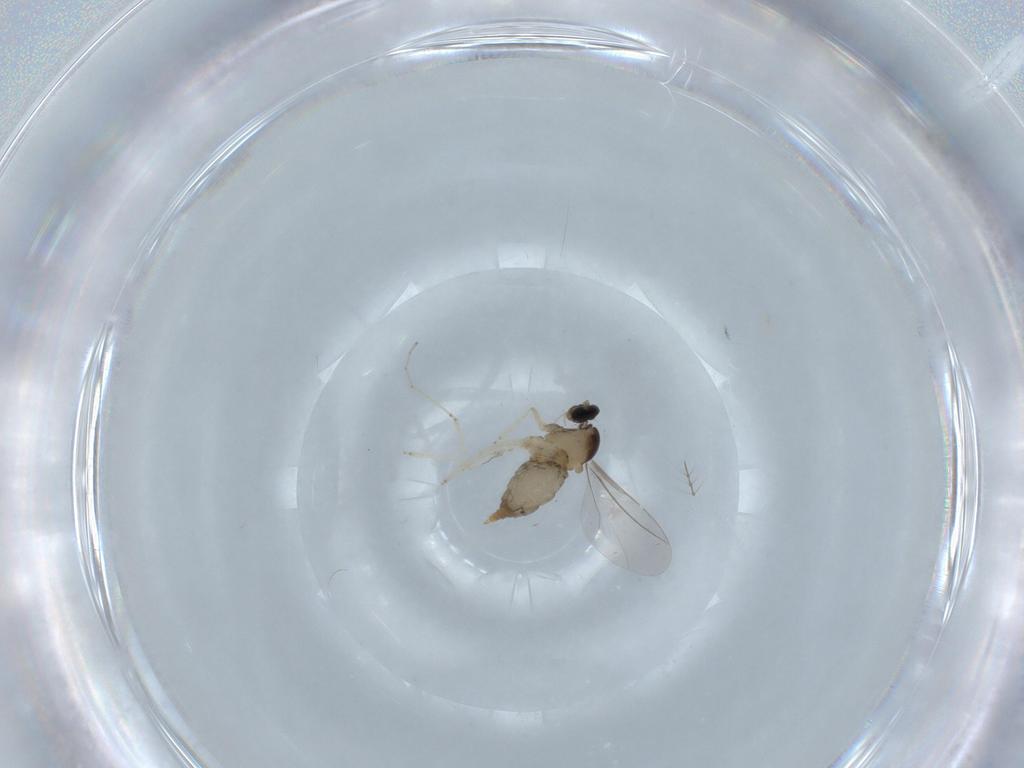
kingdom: Animalia
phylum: Arthropoda
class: Insecta
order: Diptera
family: Chironomidae
